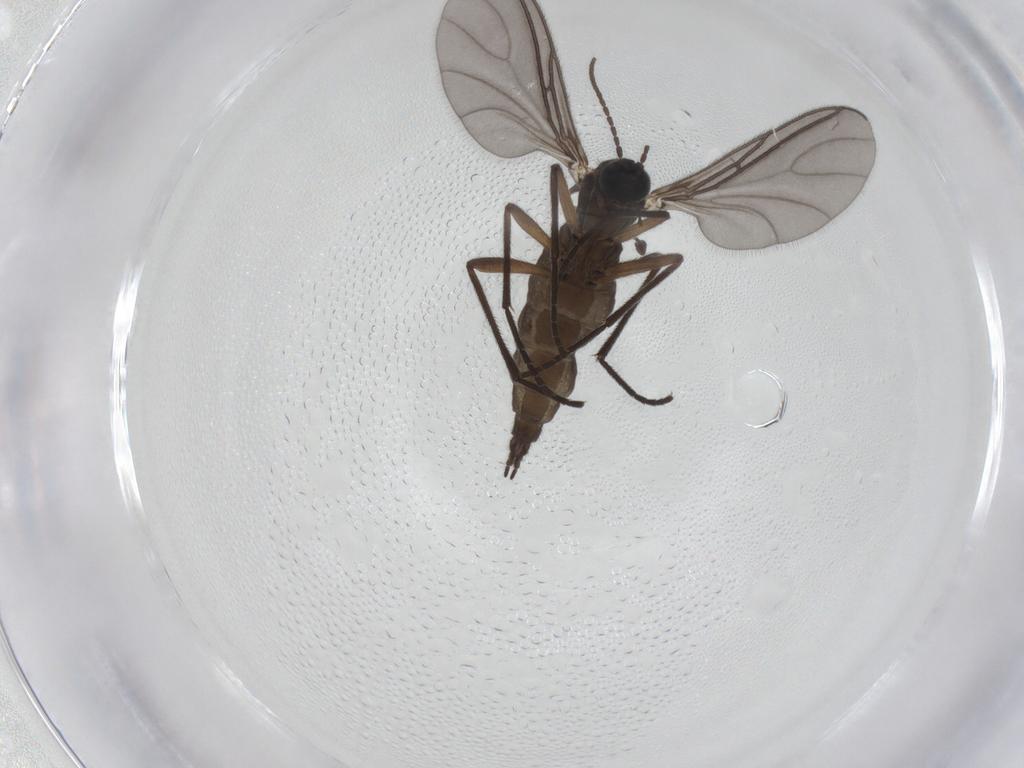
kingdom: Animalia
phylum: Arthropoda
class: Insecta
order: Diptera
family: Sciaridae
